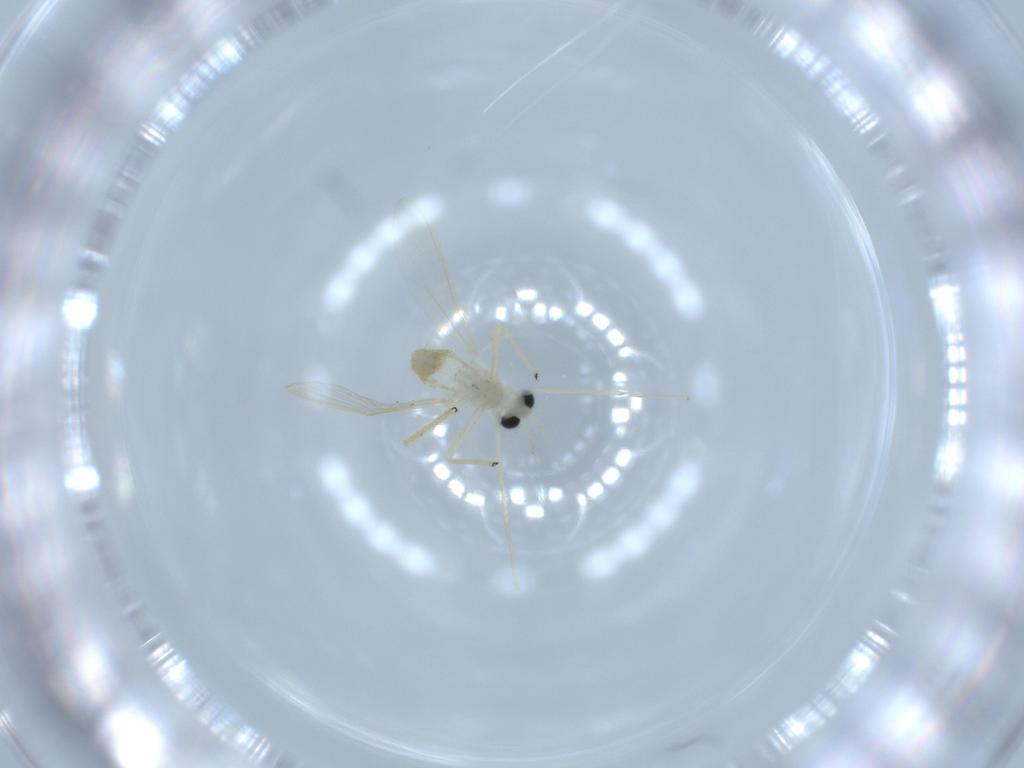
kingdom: Animalia
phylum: Arthropoda
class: Insecta
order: Diptera
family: Chironomidae
